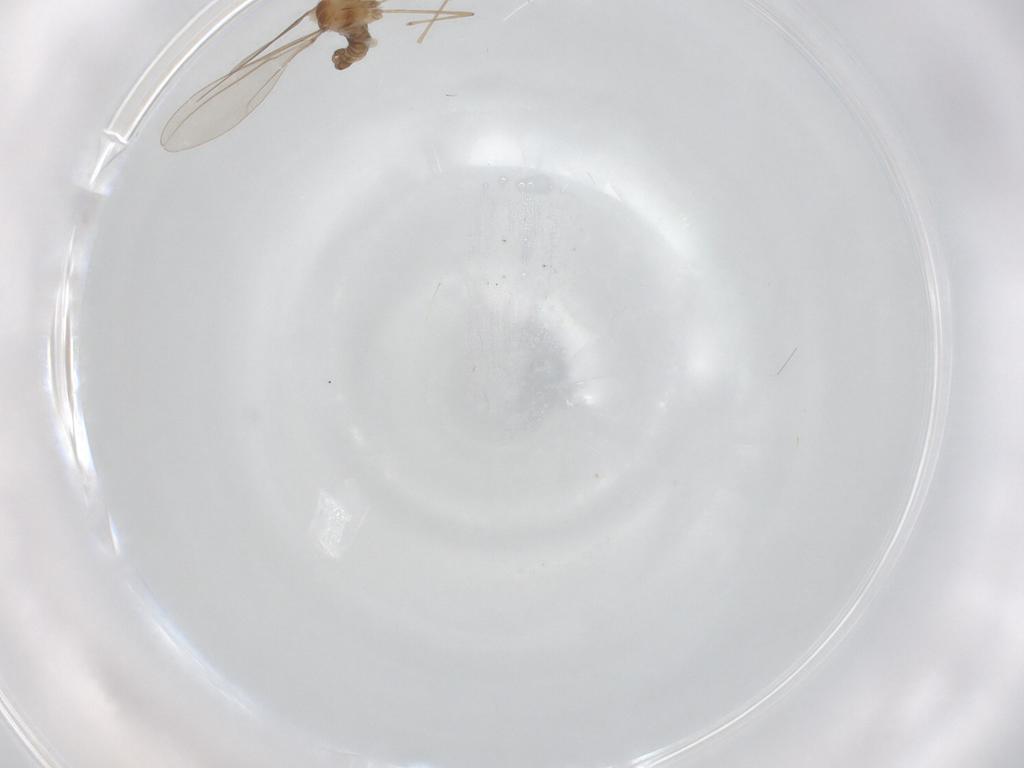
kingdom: Animalia
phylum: Arthropoda
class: Insecta
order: Diptera
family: Cecidomyiidae
